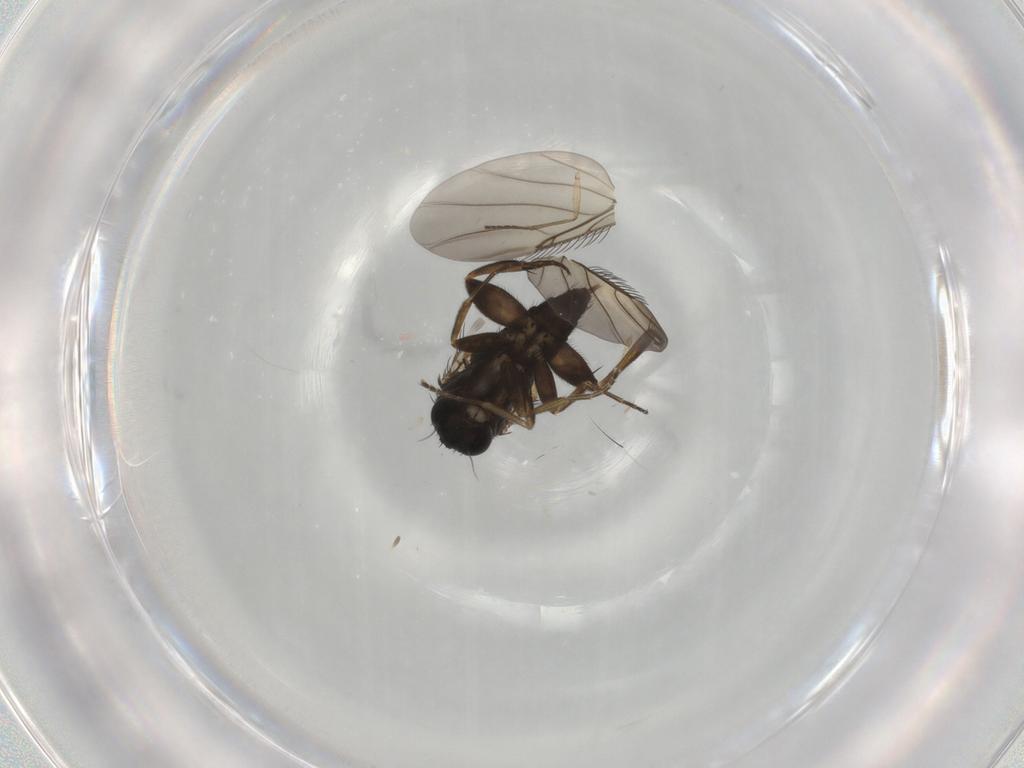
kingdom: Animalia
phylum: Arthropoda
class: Insecta
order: Diptera
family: Phoridae
